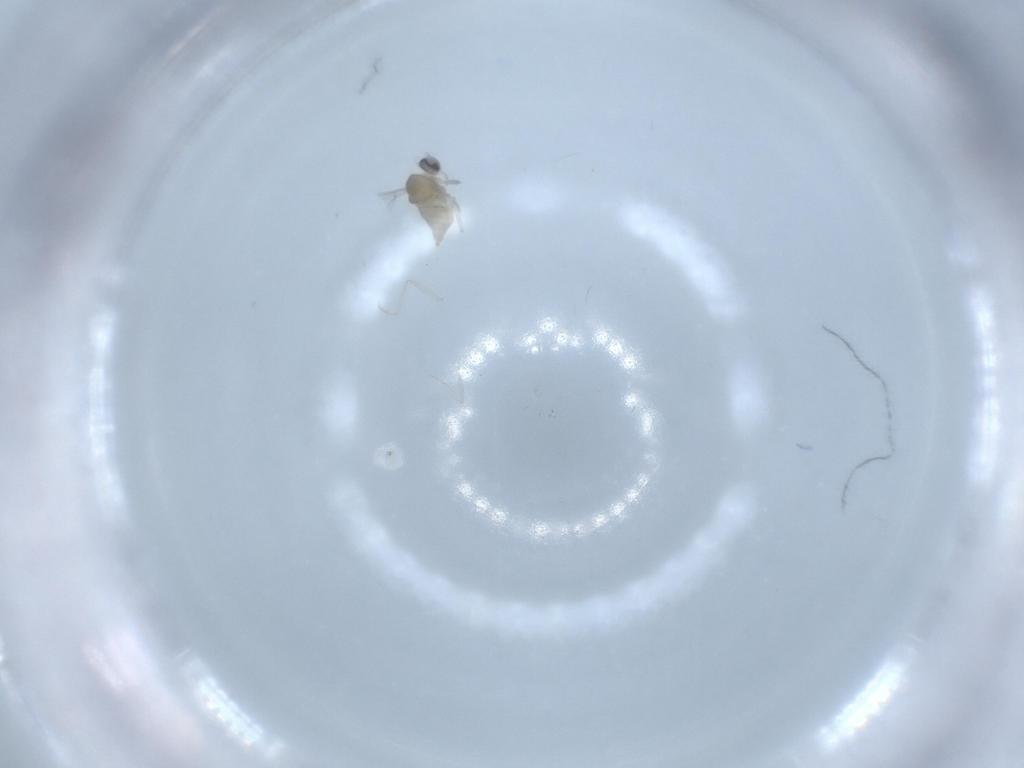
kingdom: Animalia
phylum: Arthropoda
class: Insecta
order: Diptera
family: Cecidomyiidae
